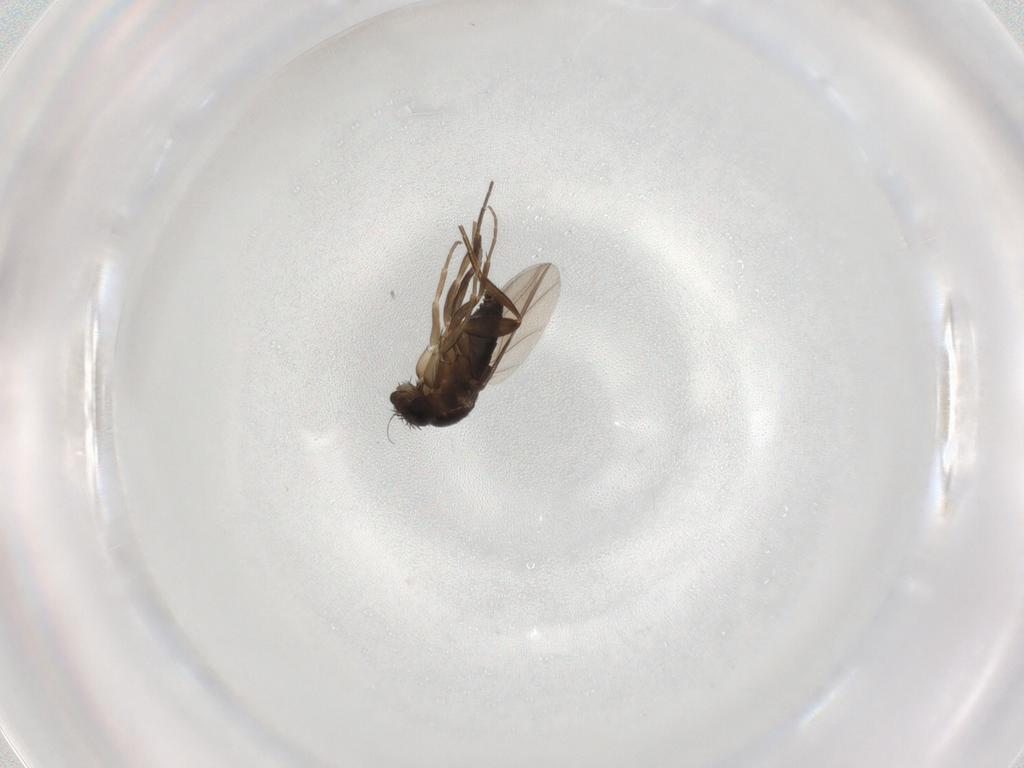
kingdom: Animalia
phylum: Arthropoda
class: Insecta
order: Diptera
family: Phoridae
